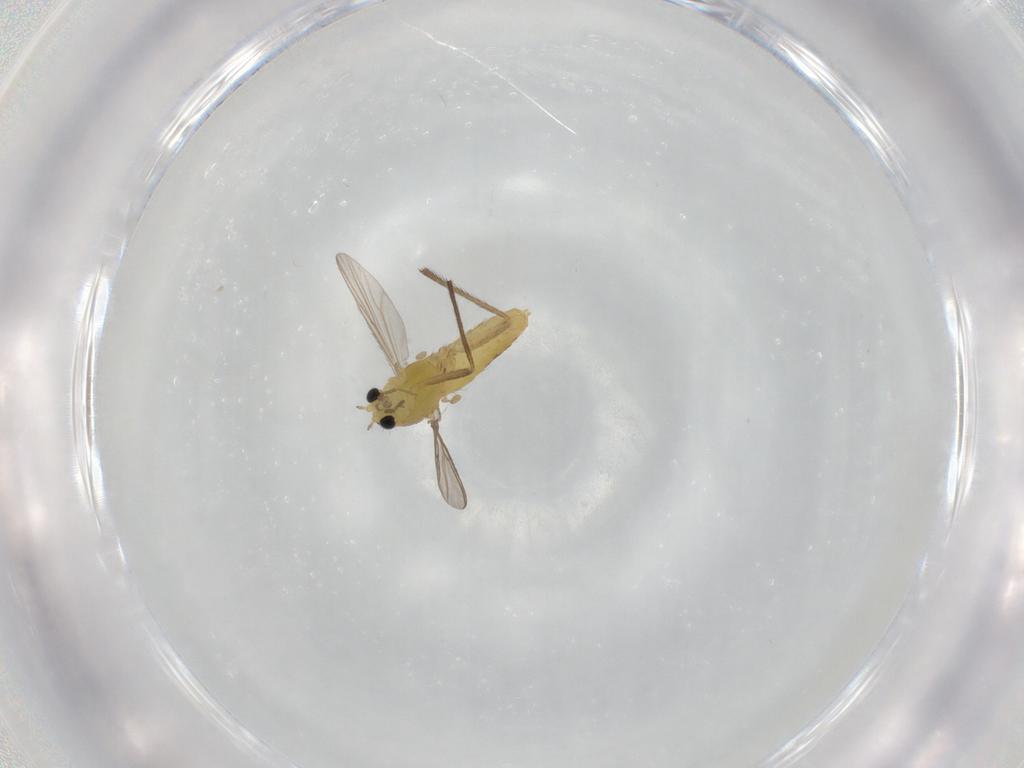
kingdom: Animalia
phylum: Arthropoda
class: Insecta
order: Diptera
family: Chironomidae
